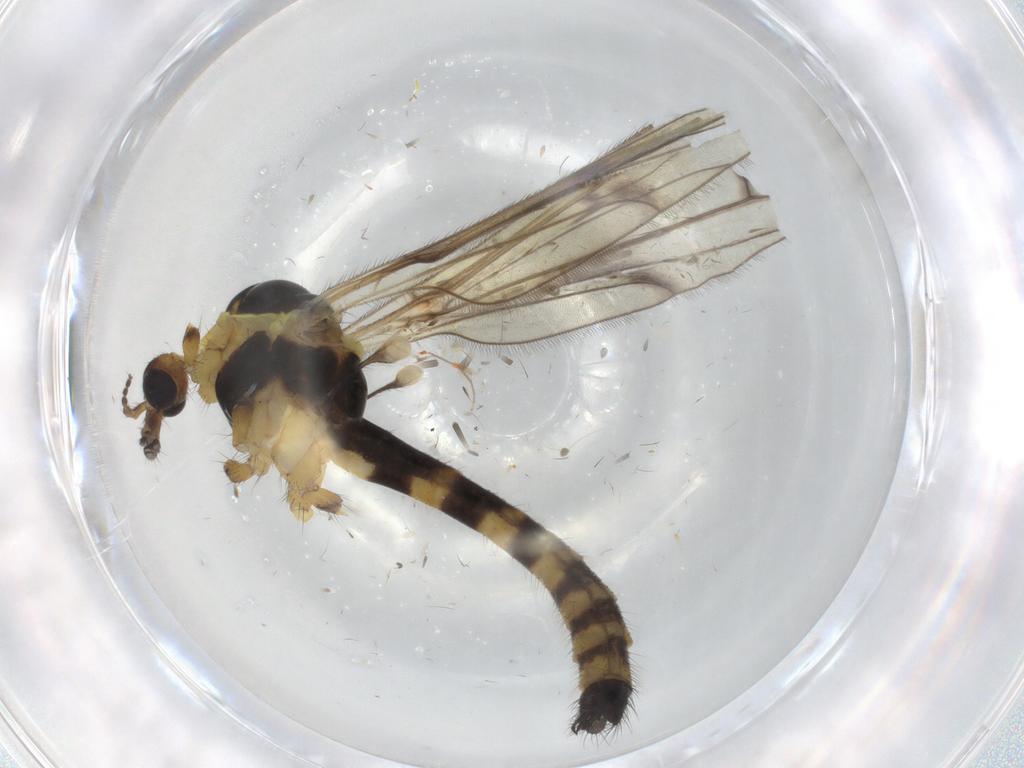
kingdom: Animalia
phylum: Arthropoda
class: Insecta
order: Diptera
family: Limoniidae
